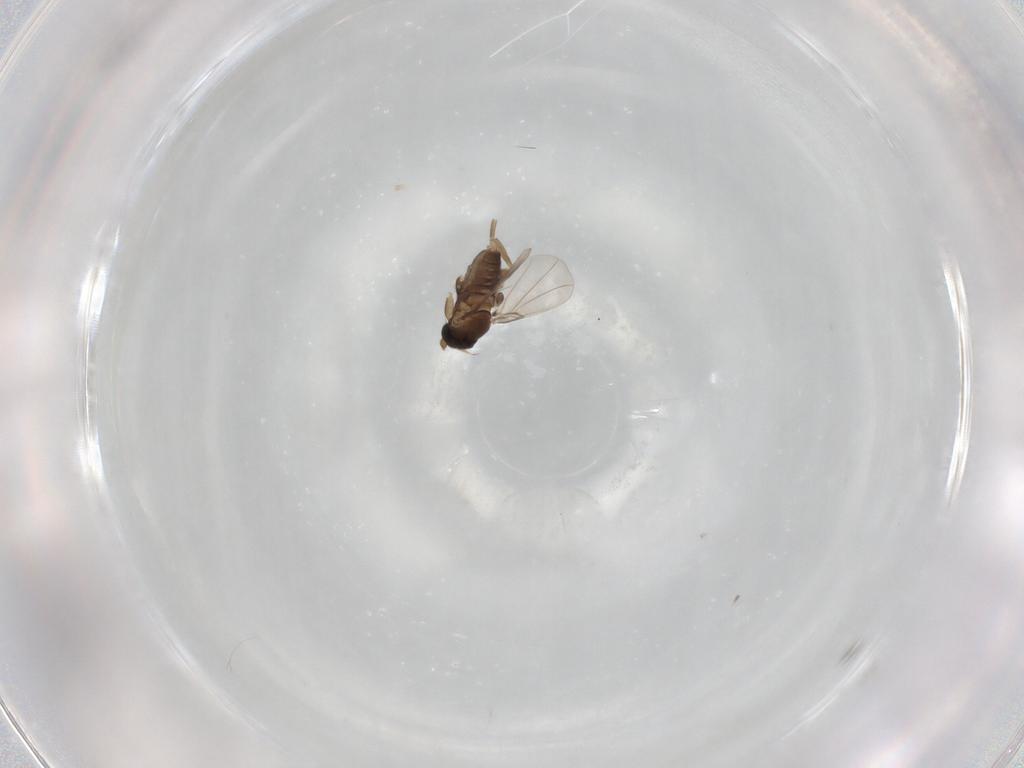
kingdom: Animalia
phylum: Arthropoda
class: Insecta
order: Diptera
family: Phoridae
